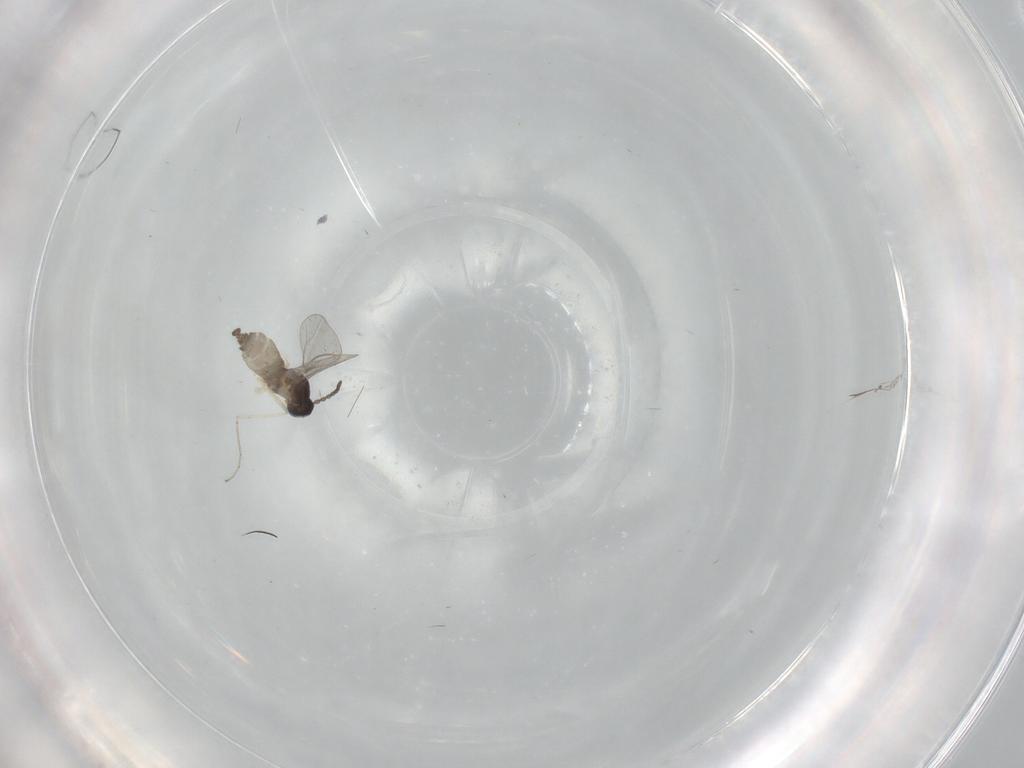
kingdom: Animalia
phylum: Arthropoda
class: Insecta
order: Diptera
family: Cecidomyiidae
